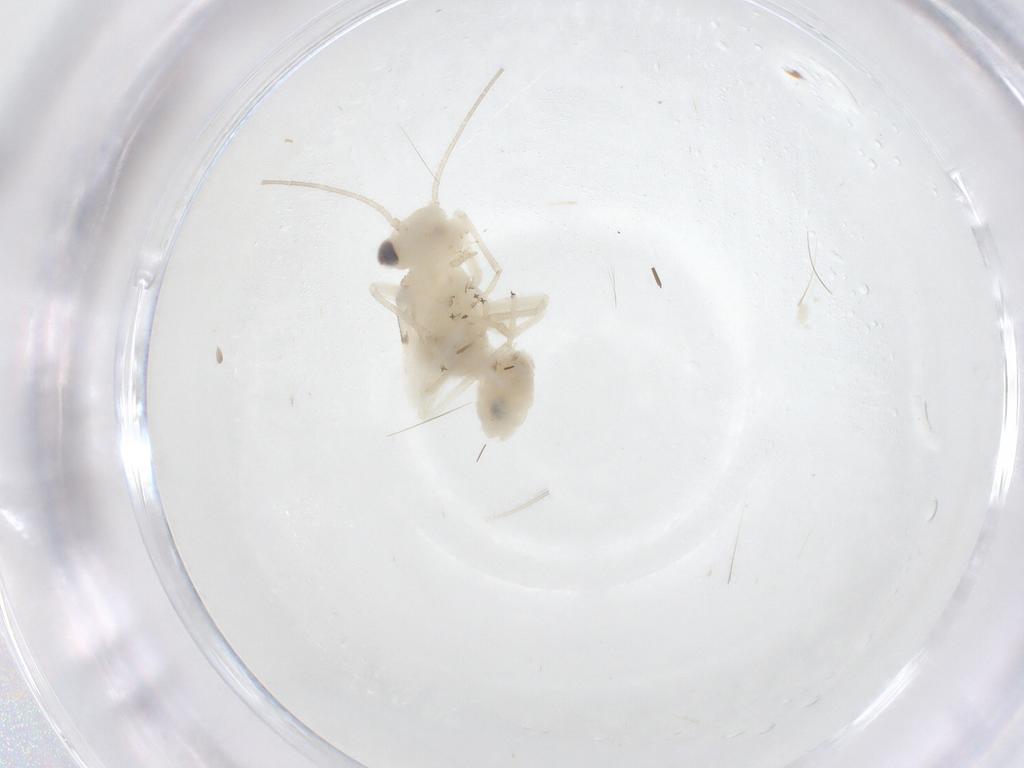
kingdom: Animalia
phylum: Arthropoda
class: Insecta
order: Psocodea
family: Caeciliusidae
